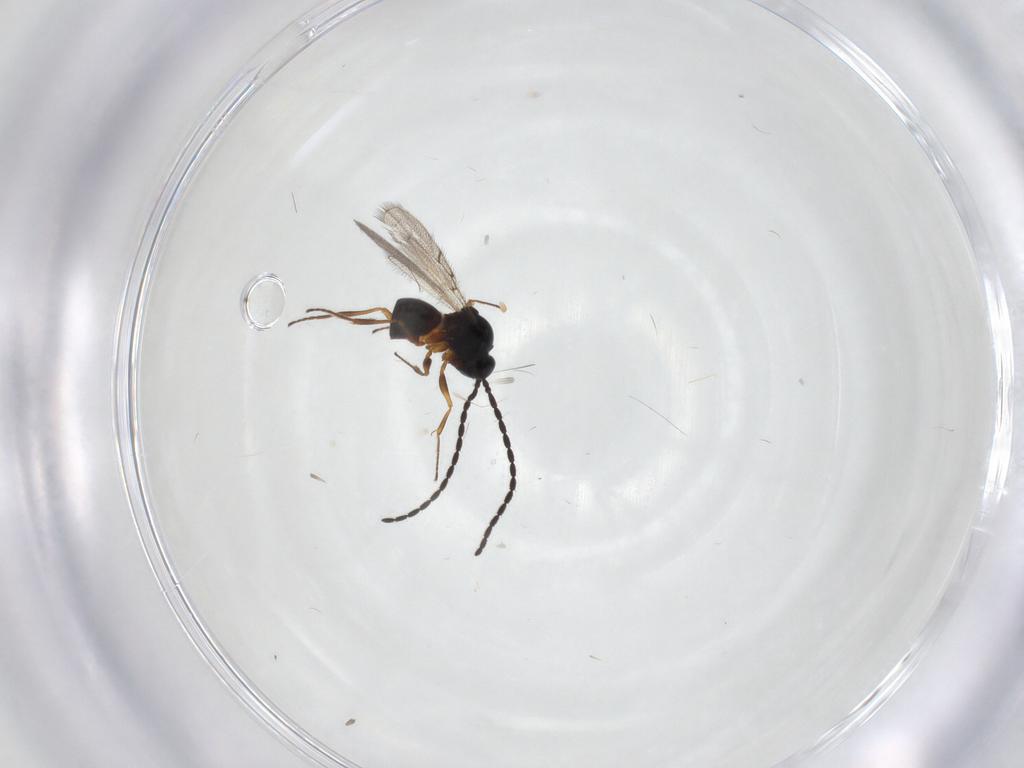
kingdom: Animalia
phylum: Arthropoda
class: Insecta
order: Hymenoptera
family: Figitidae
